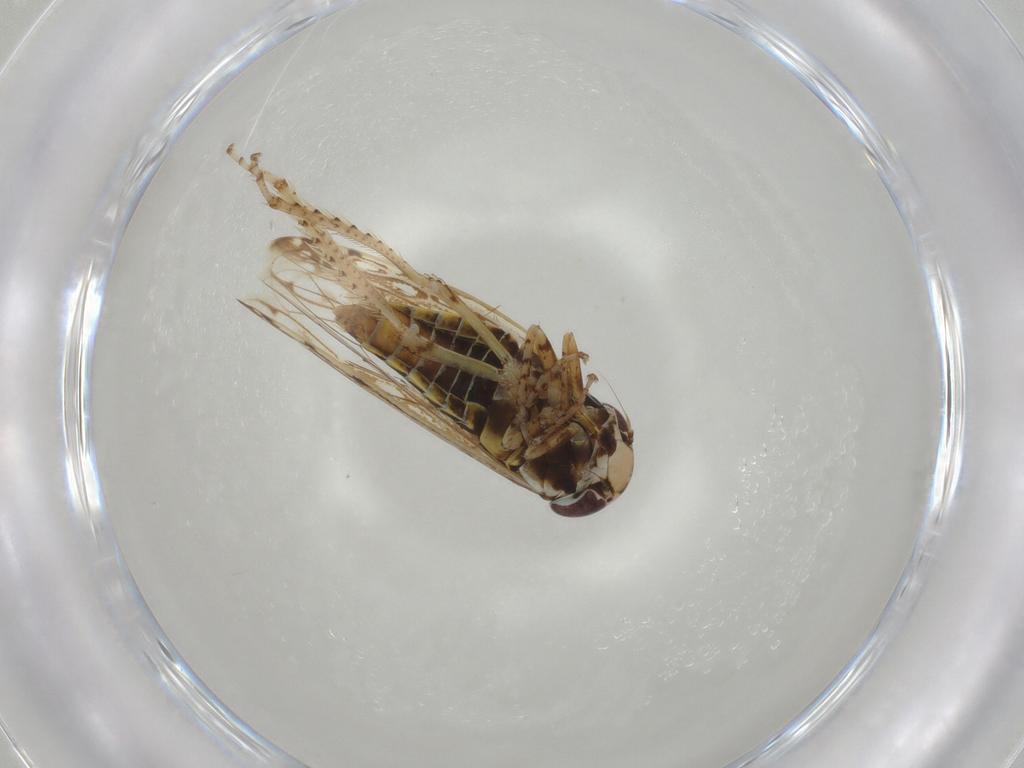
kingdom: Animalia
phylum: Arthropoda
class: Insecta
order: Hemiptera
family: Cicadellidae
